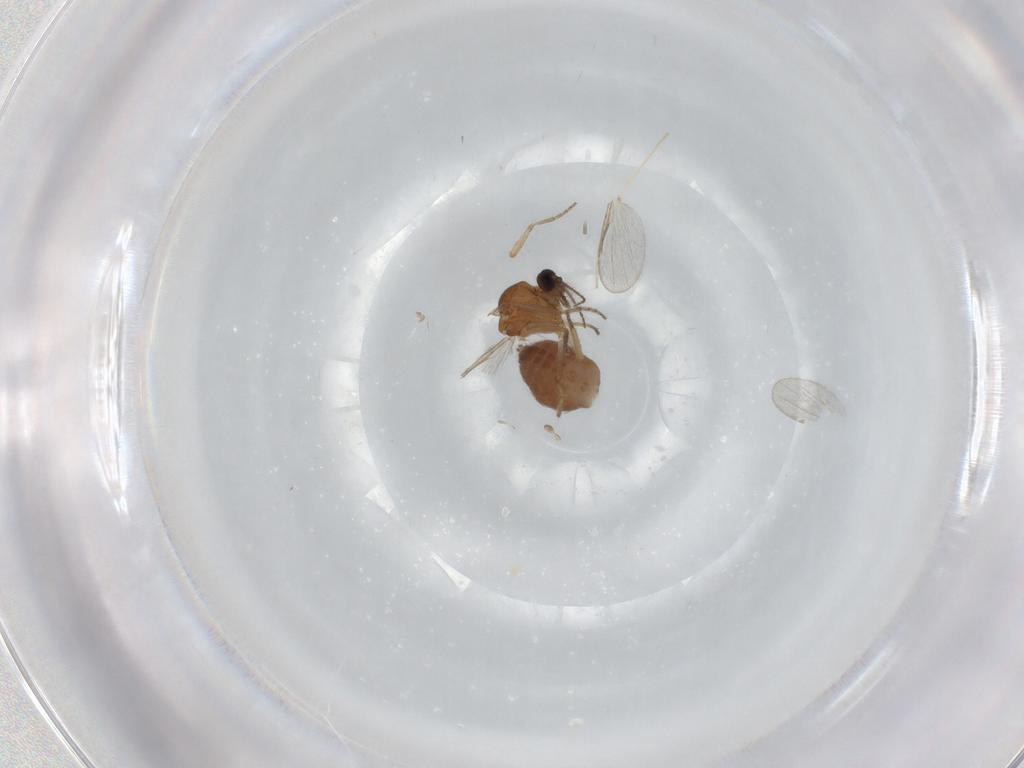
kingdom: Animalia
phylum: Arthropoda
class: Insecta
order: Diptera
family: Ceratopogonidae
